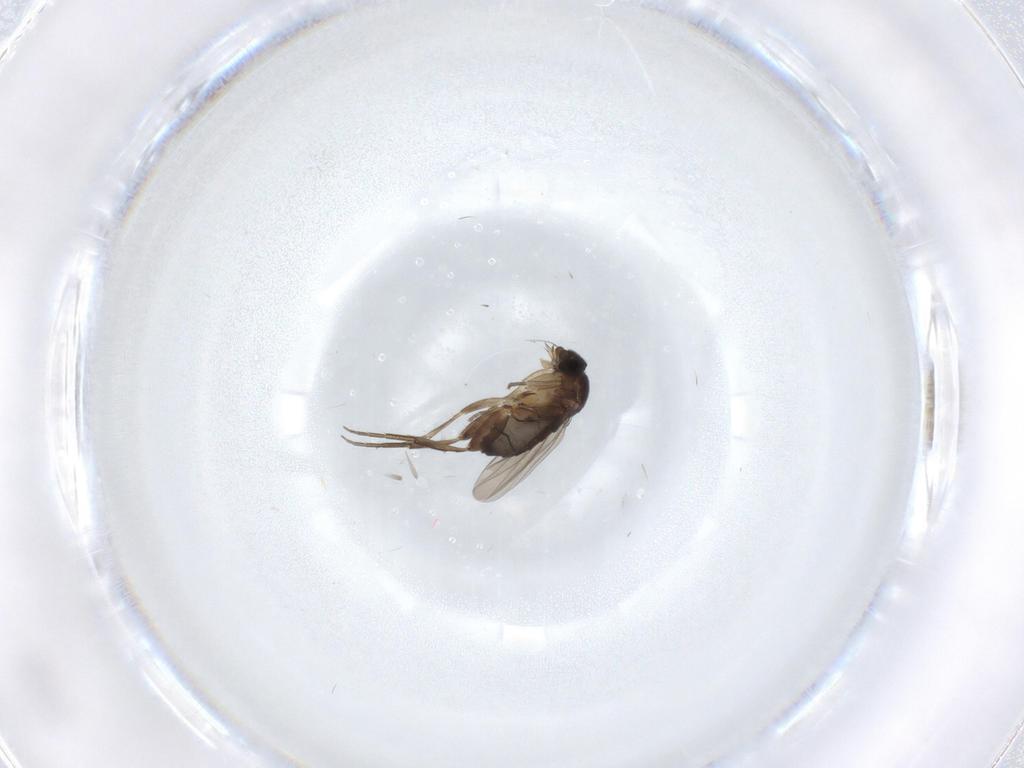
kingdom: Animalia
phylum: Arthropoda
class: Insecta
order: Diptera
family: Phoridae
